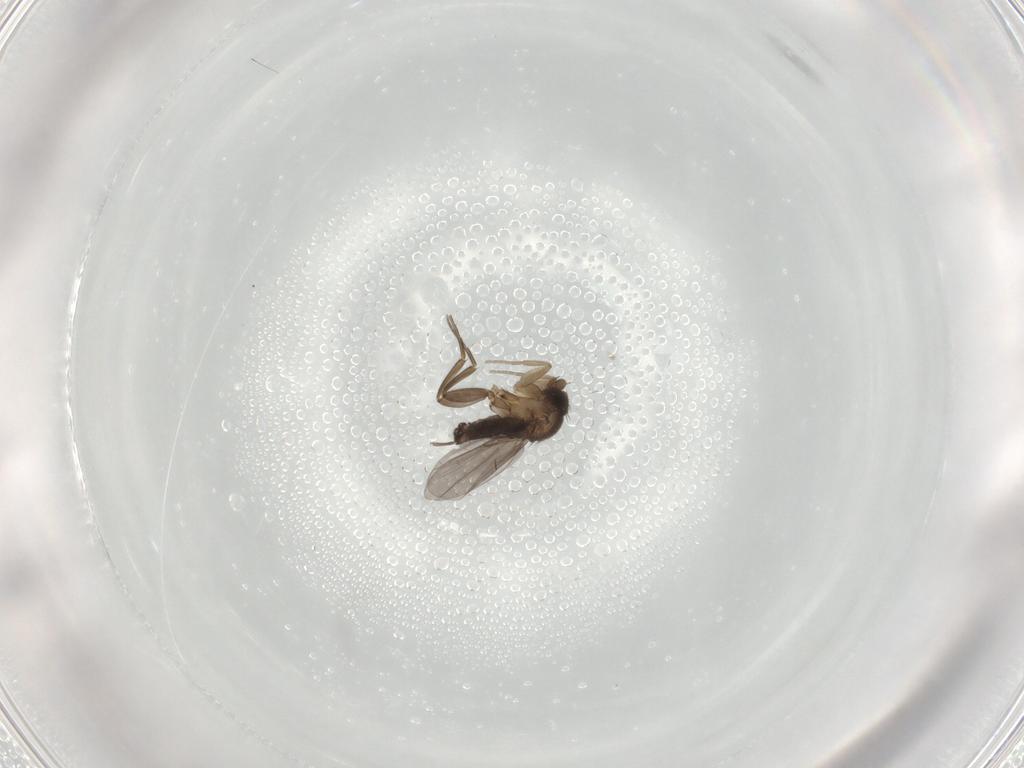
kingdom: Animalia
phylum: Arthropoda
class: Insecta
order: Diptera
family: Phoridae
